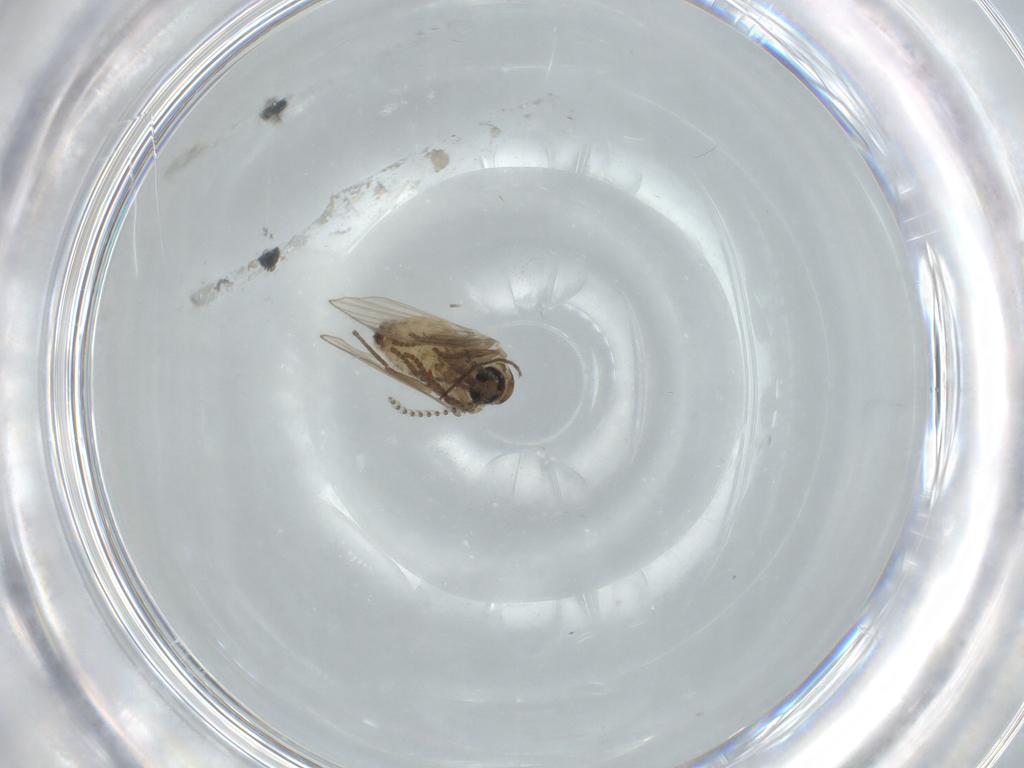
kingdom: Animalia
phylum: Arthropoda
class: Insecta
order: Diptera
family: Psychodidae
